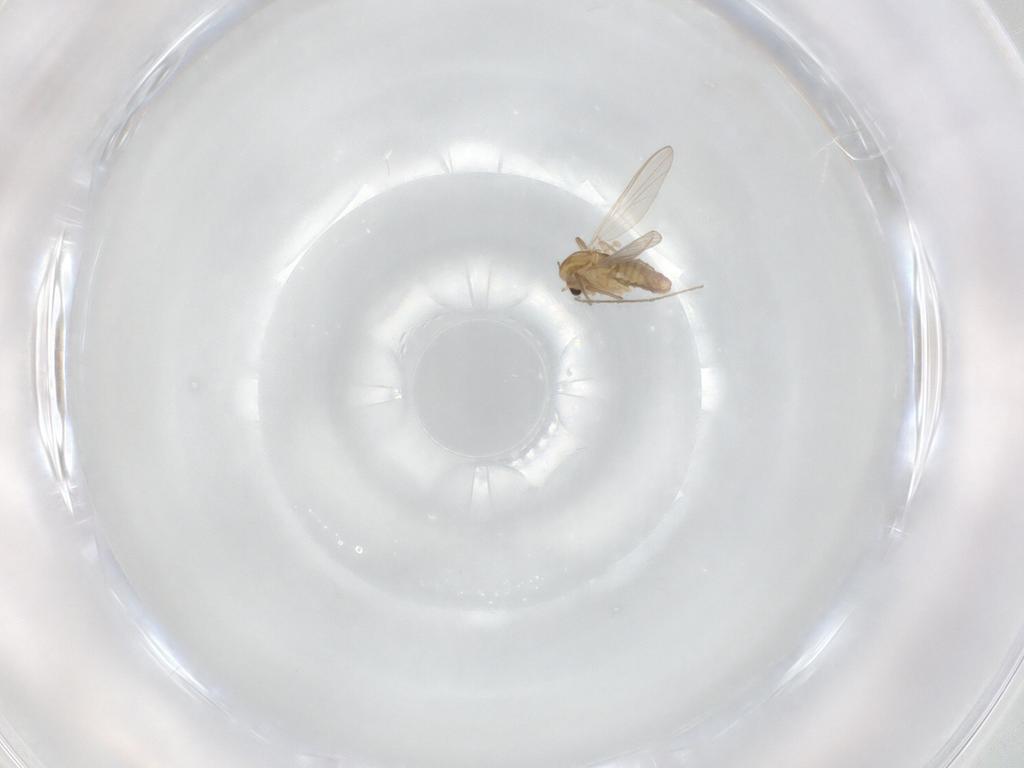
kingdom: Animalia
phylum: Arthropoda
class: Insecta
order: Diptera
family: Chironomidae
